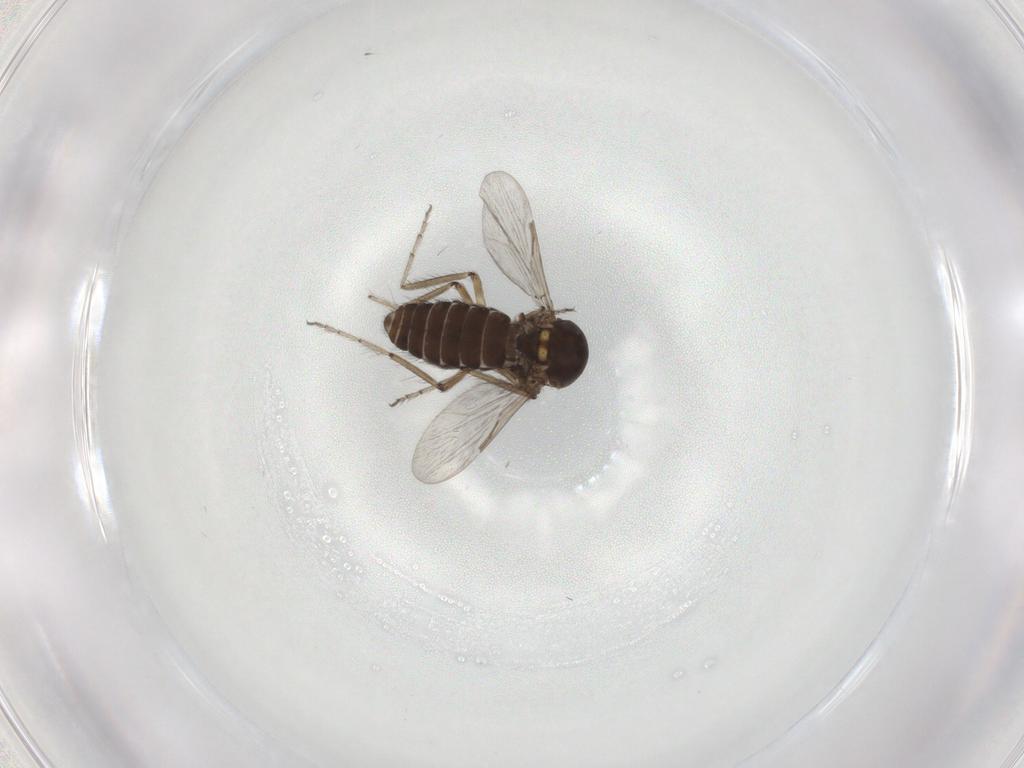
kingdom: Animalia
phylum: Arthropoda
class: Insecta
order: Diptera
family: Ceratopogonidae
